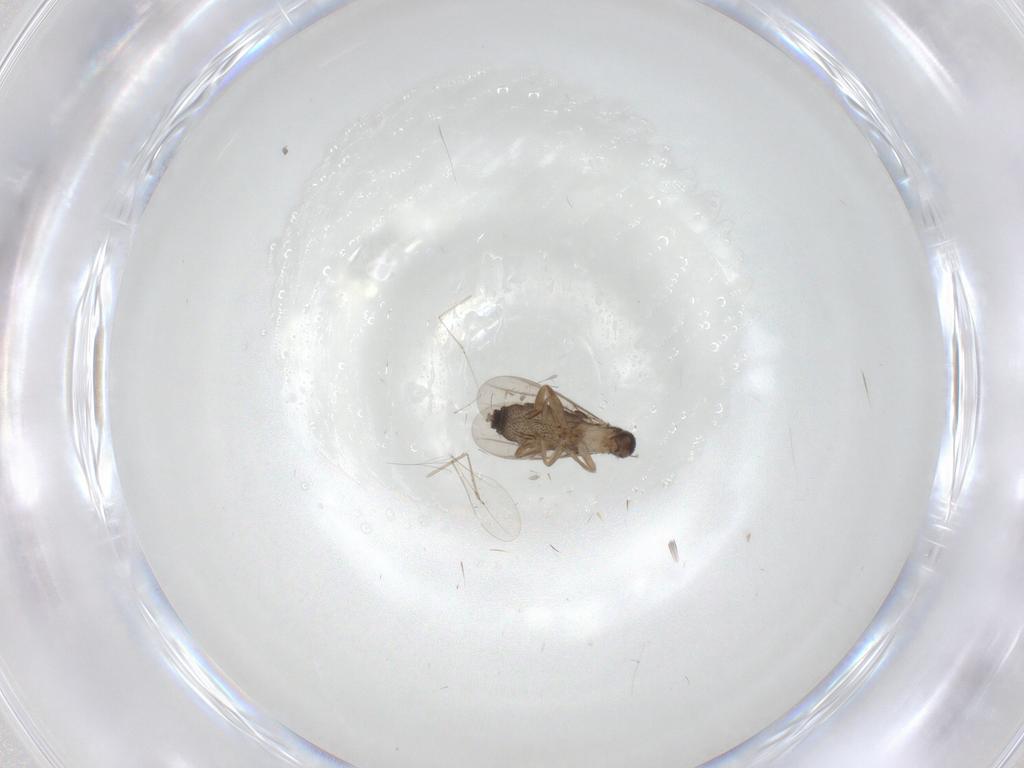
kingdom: Animalia
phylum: Arthropoda
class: Insecta
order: Diptera
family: Phoridae
